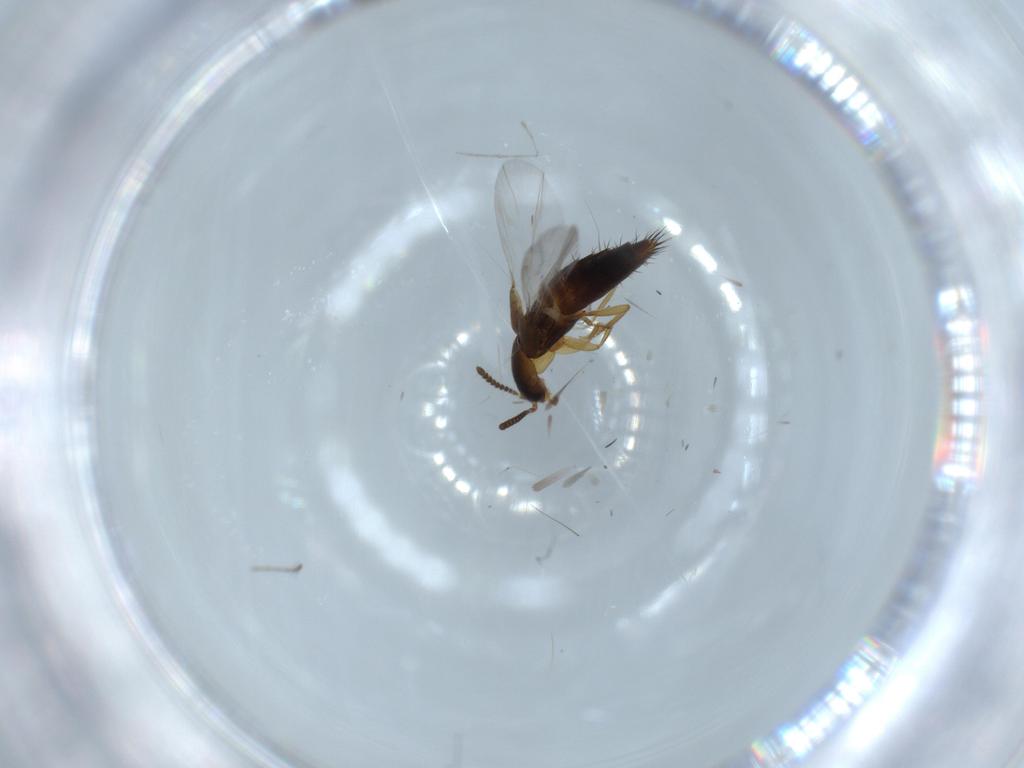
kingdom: Animalia
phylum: Arthropoda
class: Insecta
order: Coleoptera
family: Staphylinidae
